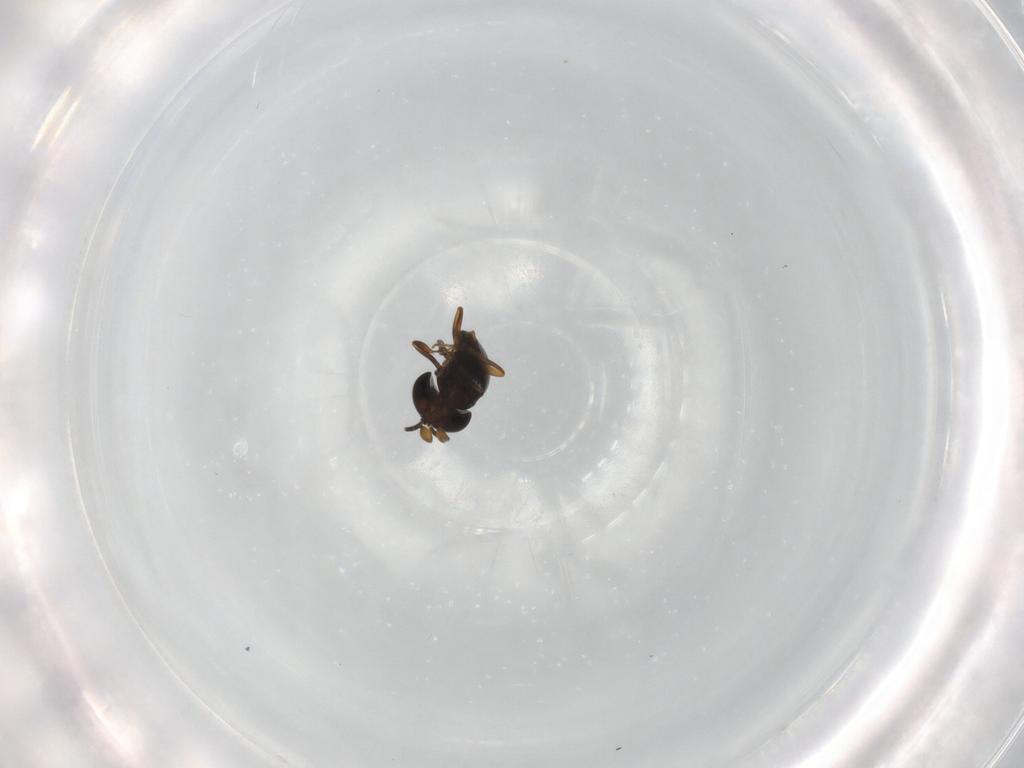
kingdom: Animalia
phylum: Arthropoda
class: Insecta
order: Hymenoptera
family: Scelionidae
